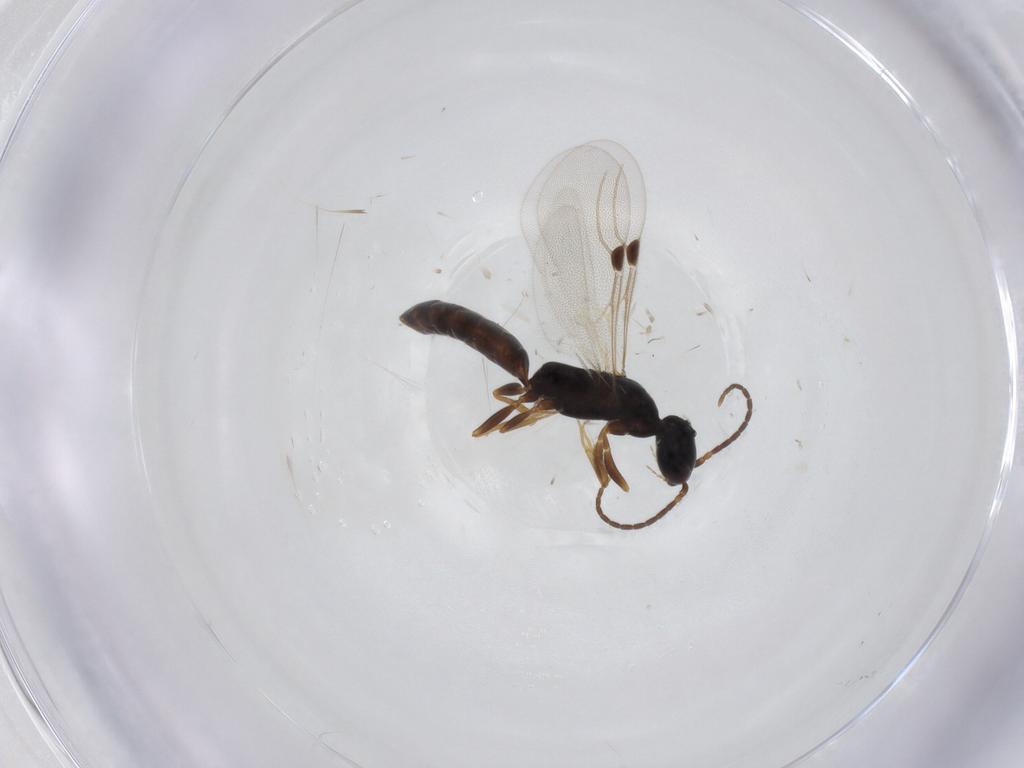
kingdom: Animalia
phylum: Arthropoda
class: Insecta
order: Hymenoptera
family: Bethylidae
